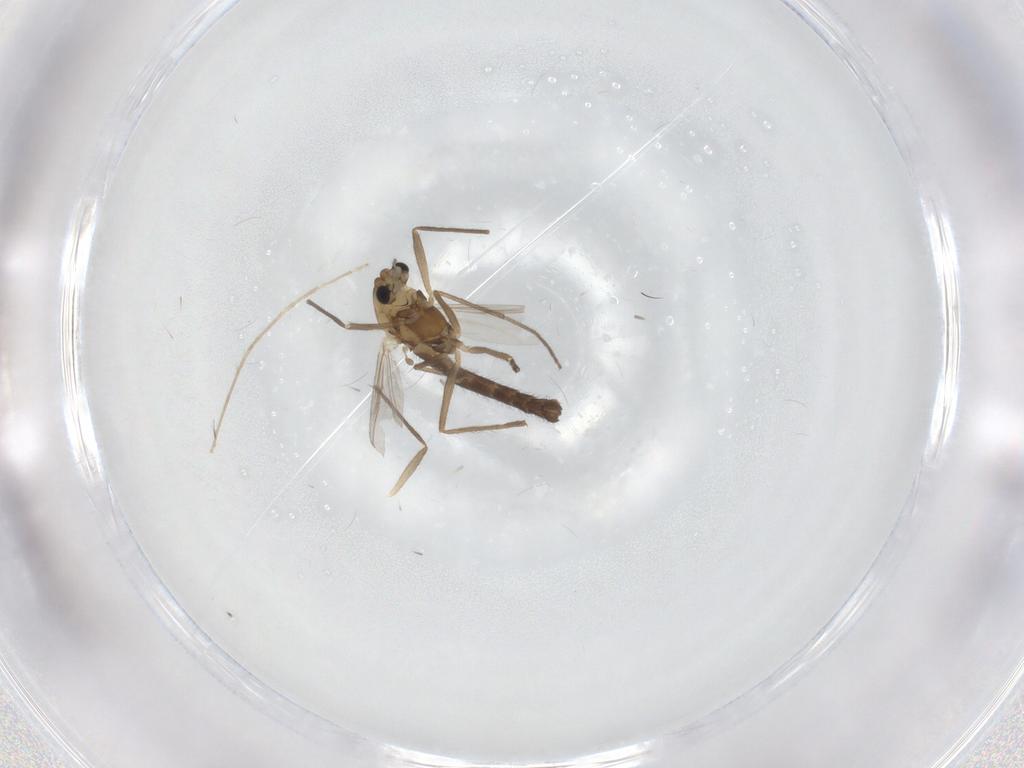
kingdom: Animalia
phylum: Arthropoda
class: Insecta
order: Diptera
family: Chironomidae
